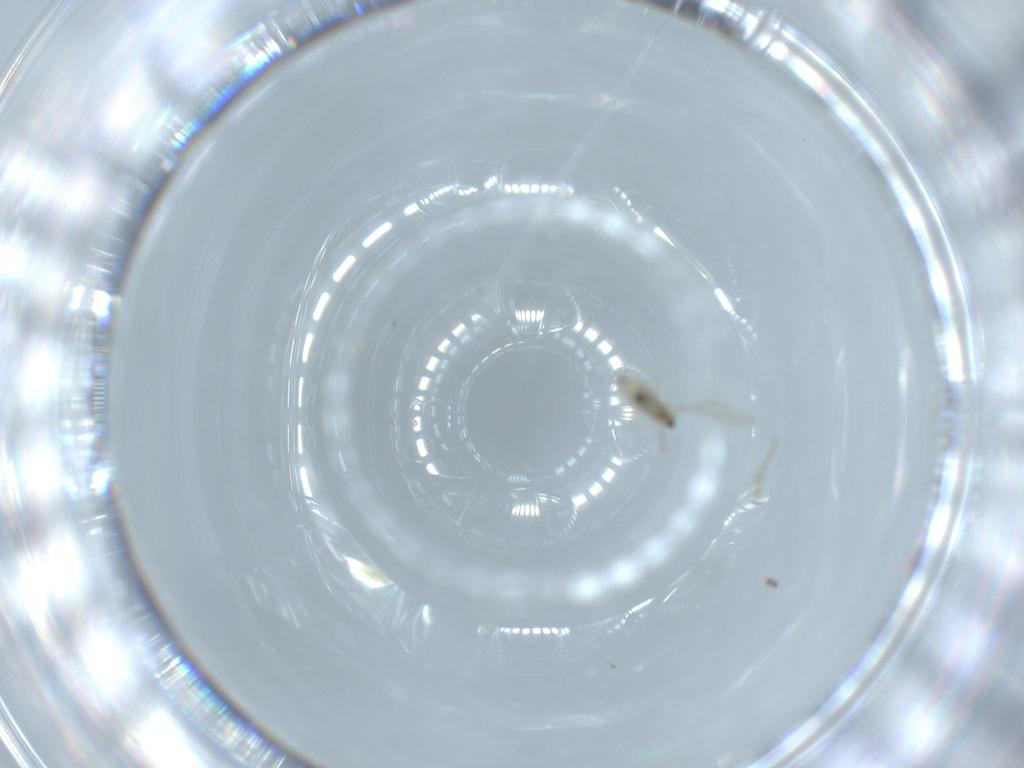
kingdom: Animalia
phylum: Arthropoda
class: Insecta
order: Diptera
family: Cecidomyiidae
